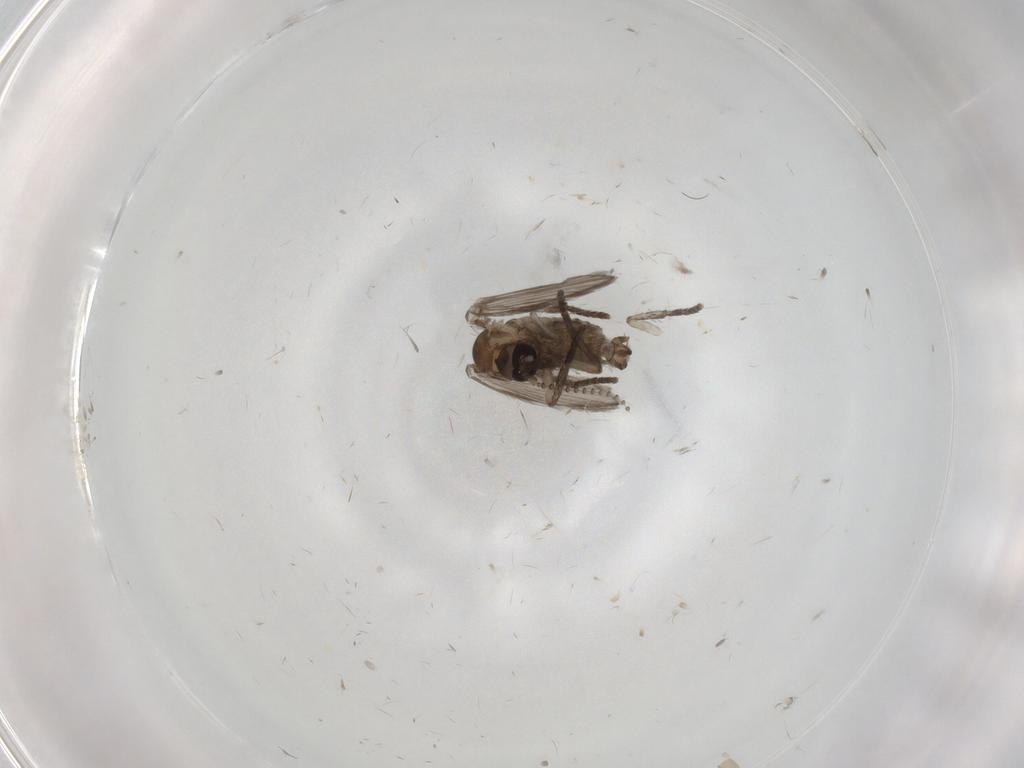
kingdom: Animalia
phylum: Arthropoda
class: Insecta
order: Diptera
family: Psychodidae
